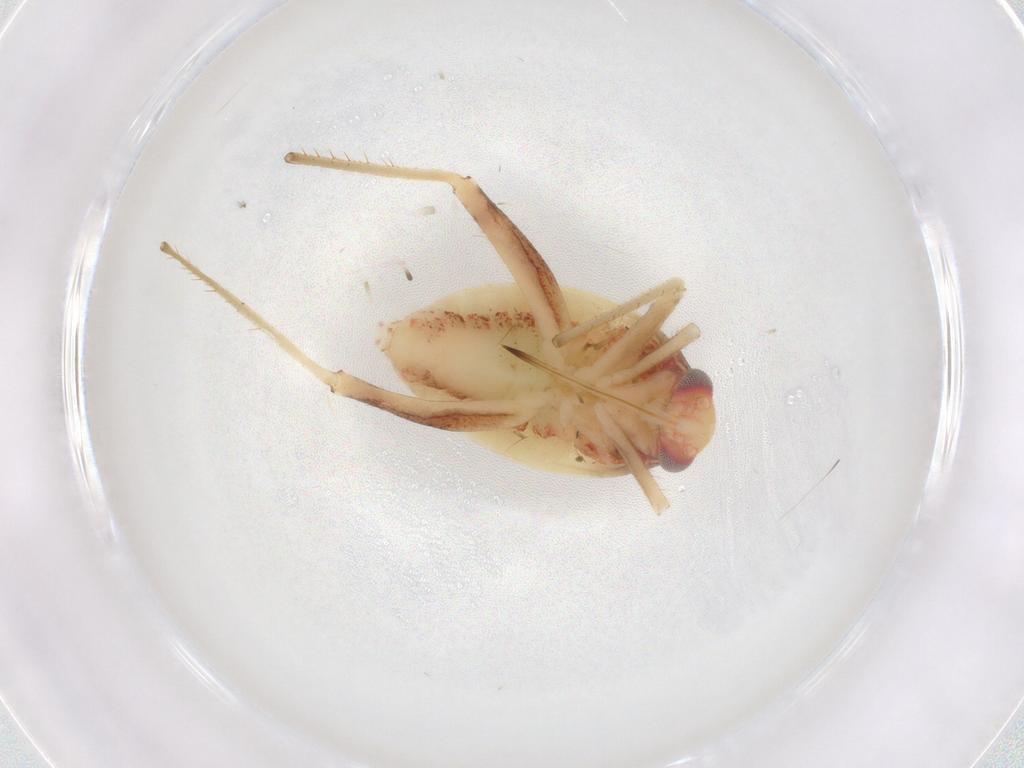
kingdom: Animalia
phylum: Arthropoda
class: Insecta
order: Hemiptera
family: Miridae
